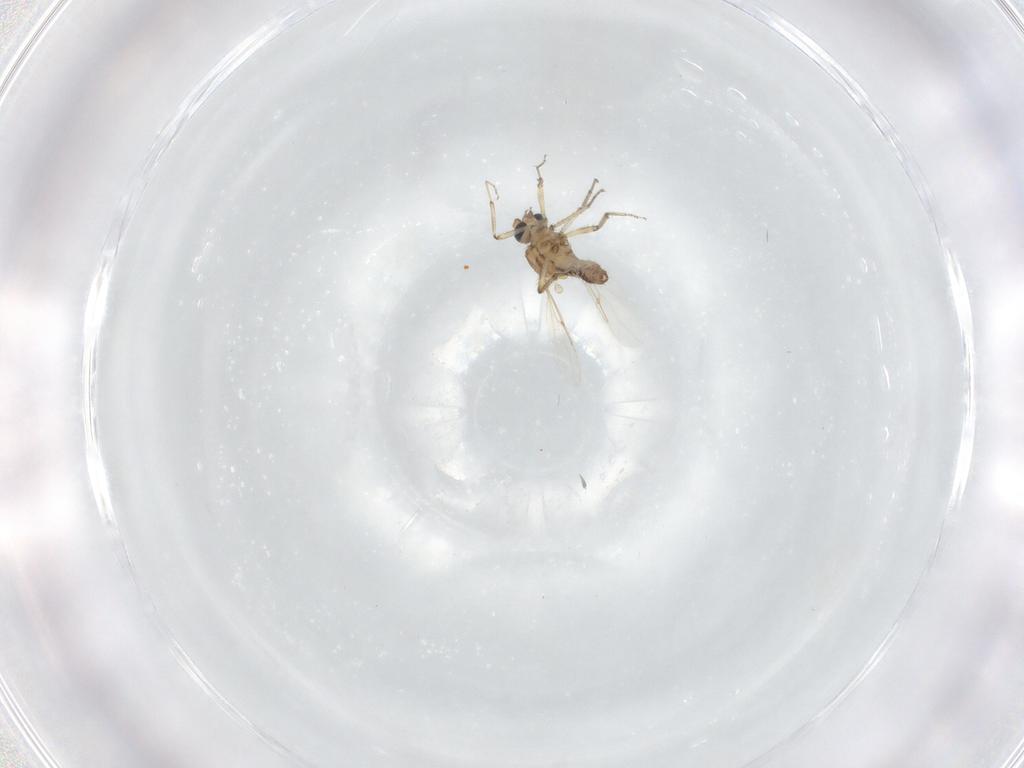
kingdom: Animalia
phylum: Arthropoda
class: Insecta
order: Diptera
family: Phoridae
